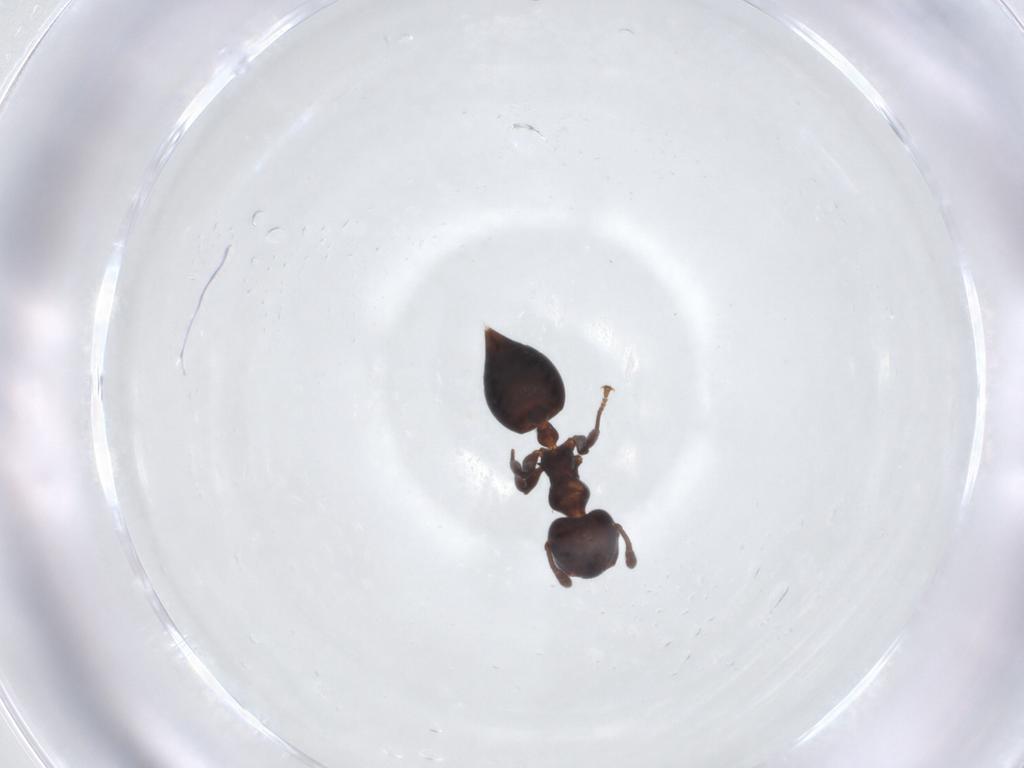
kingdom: Animalia
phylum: Arthropoda
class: Insecta
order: Hymenoptera
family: Formicidae
